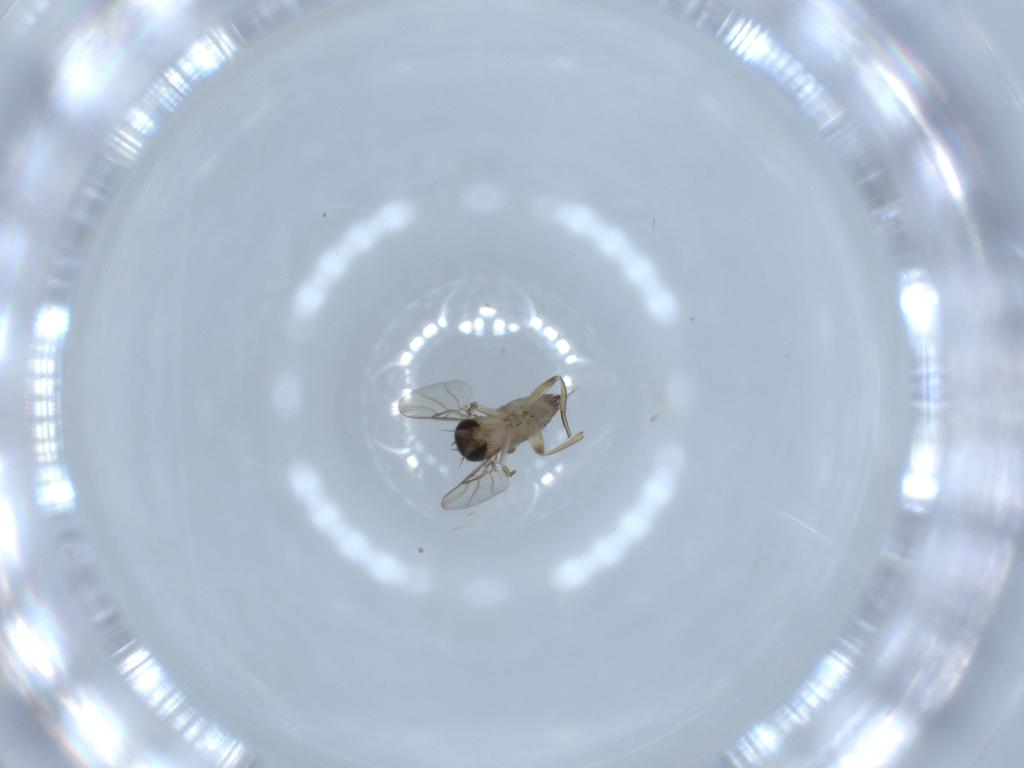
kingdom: Animalia
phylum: Arthropoda
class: Insecta
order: Diptera
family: Phoridae
